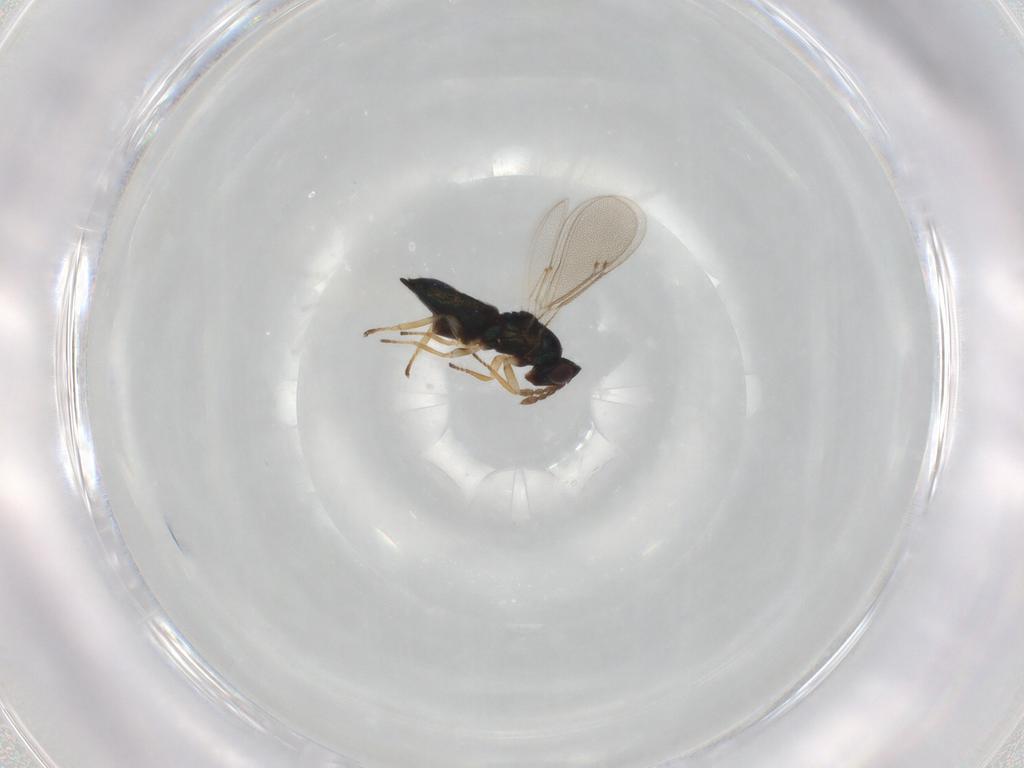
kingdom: Animalia
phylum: Arthropoda
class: Insecta
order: Hymenoptera
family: Eulophidae
